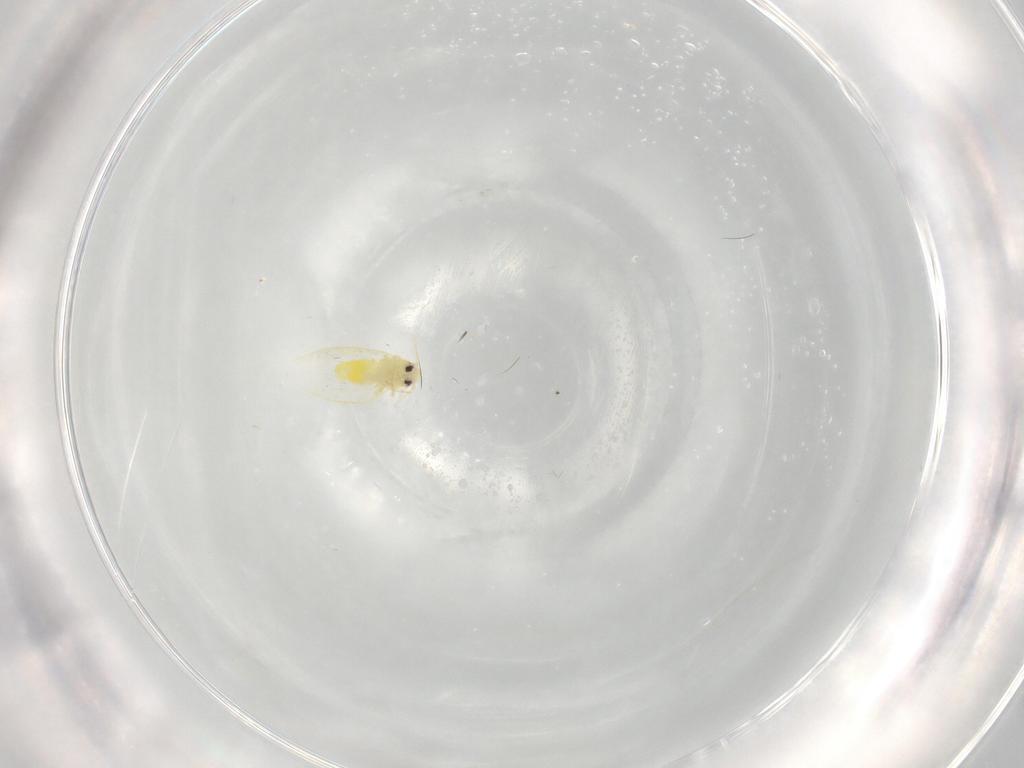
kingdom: Animalia
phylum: Arthropoda
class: Insecta
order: Hemiptera
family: Aleyrodidae
